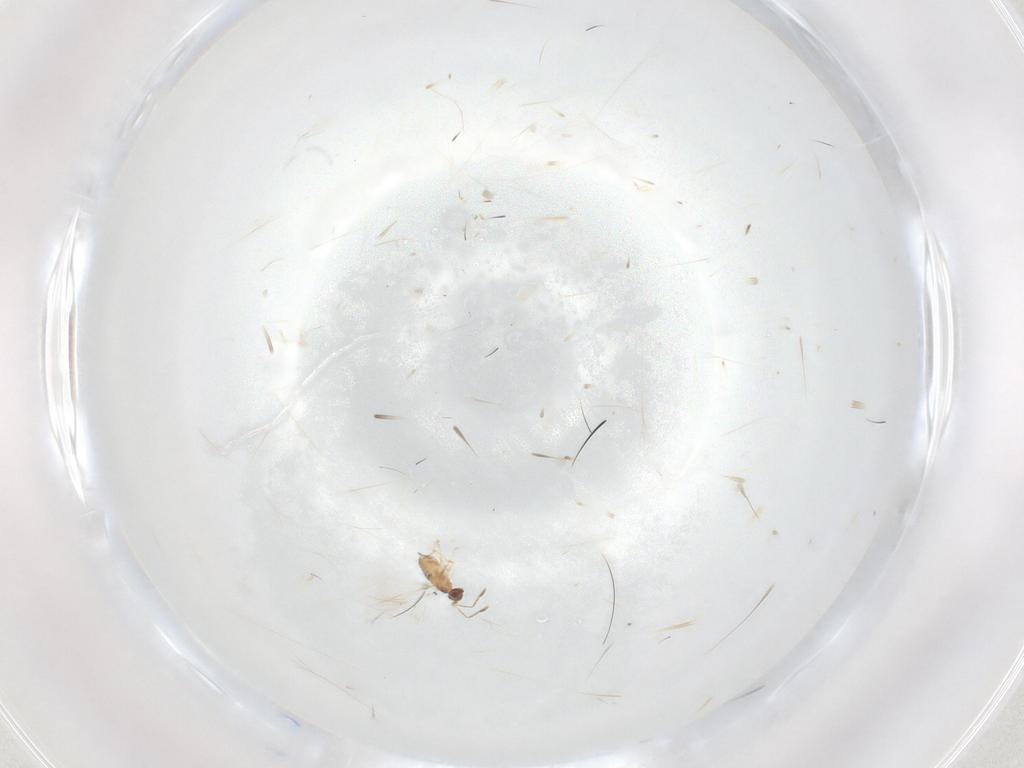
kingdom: Animalia
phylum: Arthropoda
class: Insecta
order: Hymenoptera
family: Mymaridae
